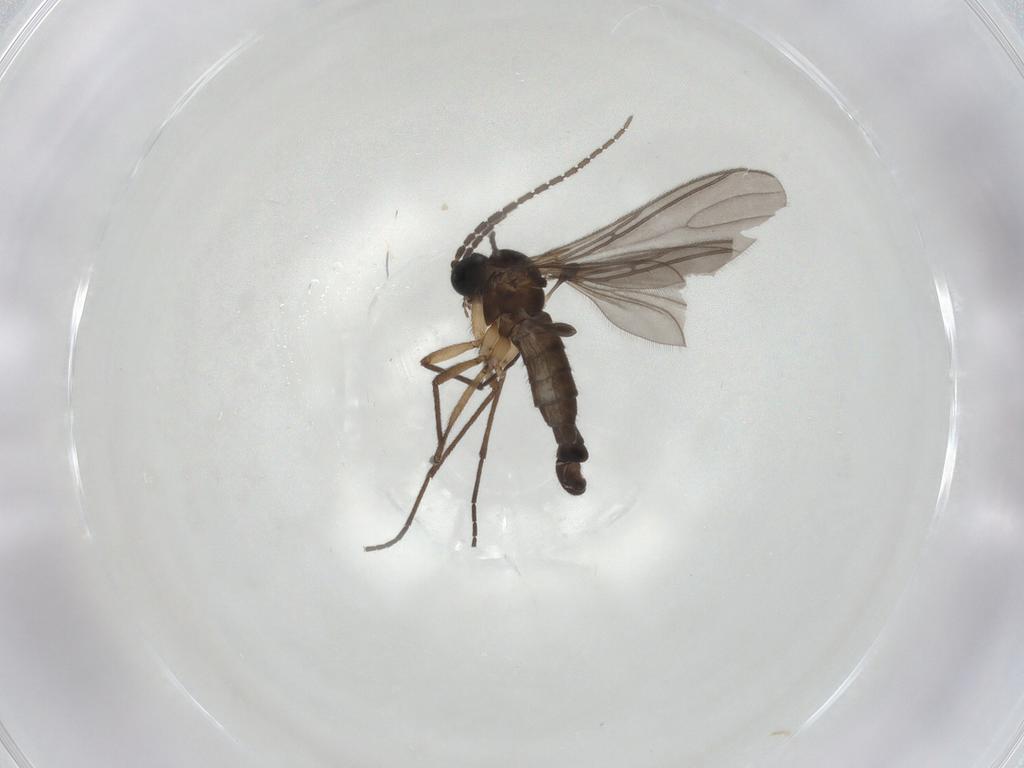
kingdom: Animalia
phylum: Arthropoda
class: Insecta
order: Diptera
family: Sciaridae
